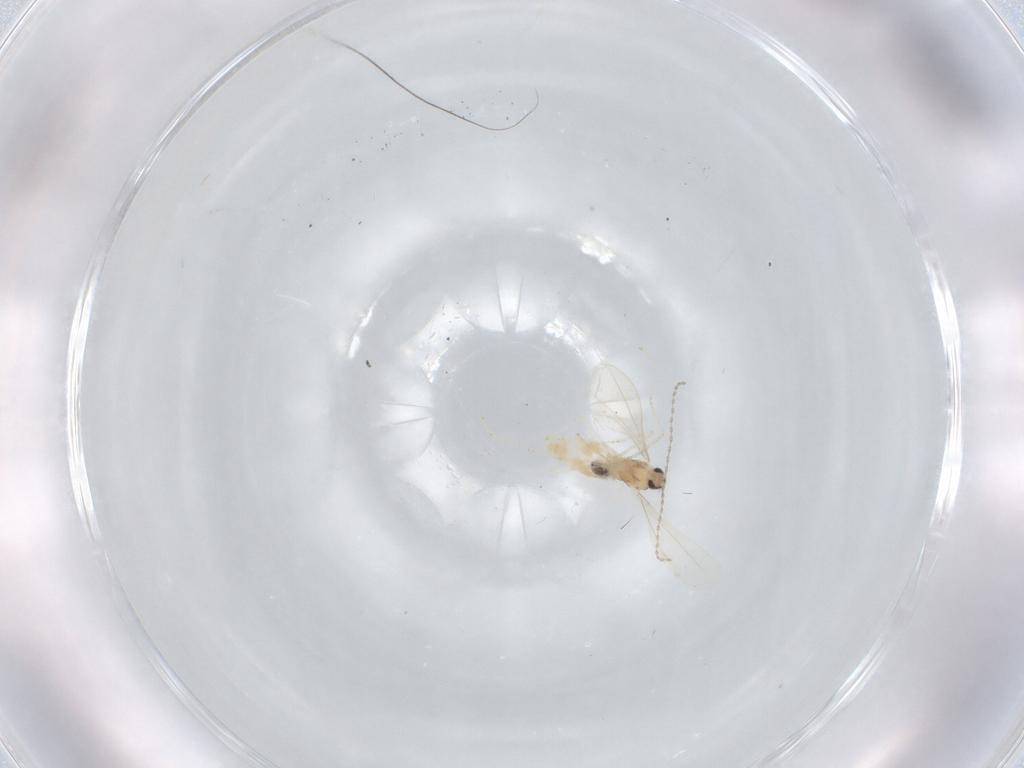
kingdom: Animalia
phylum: Arthropoda
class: Insecta
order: Diptera
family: Cecidomyiidae
